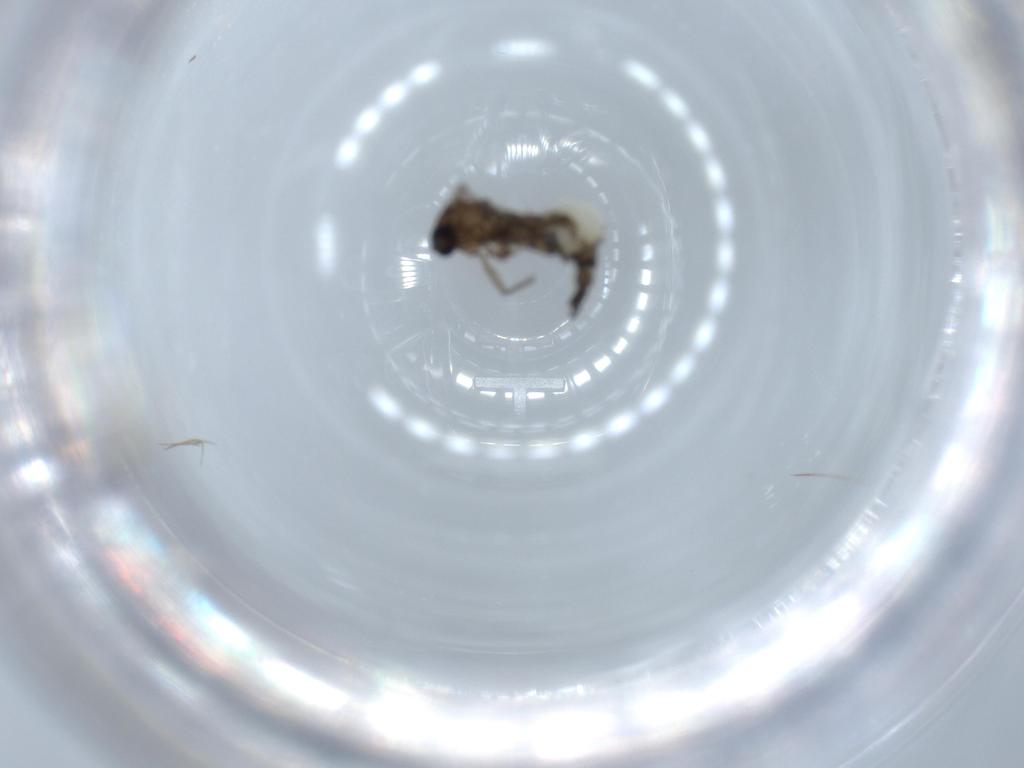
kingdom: Animalia
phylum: Arthropoda
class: Insecta
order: Diptera
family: Sciaridae
